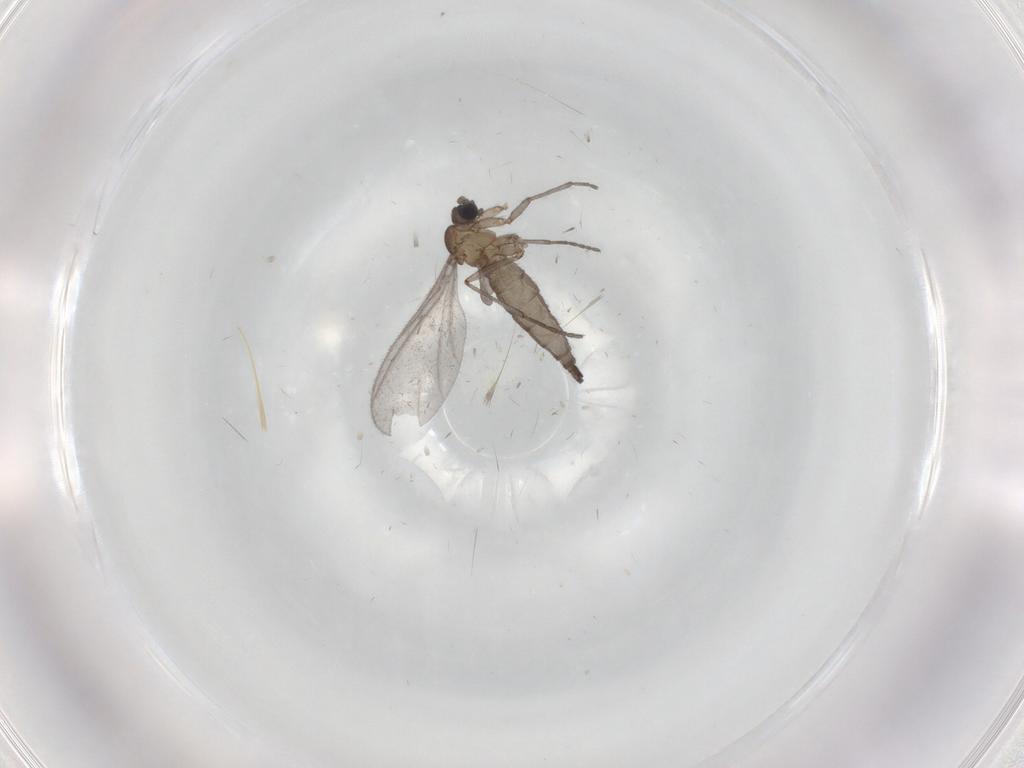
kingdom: Animalia
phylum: Arthropoda
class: Insecta
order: Diptera
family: Sciaridae
